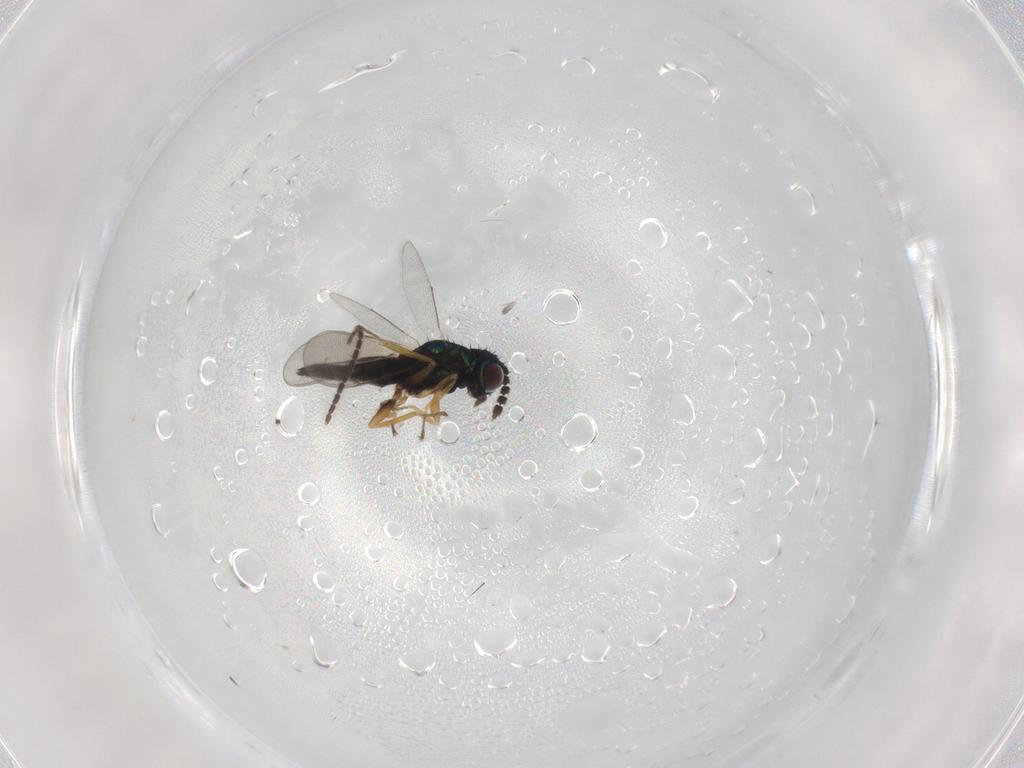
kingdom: Animalia
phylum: Arthropoda
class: Insecta
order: Hymenoptera
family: Eulophidae
